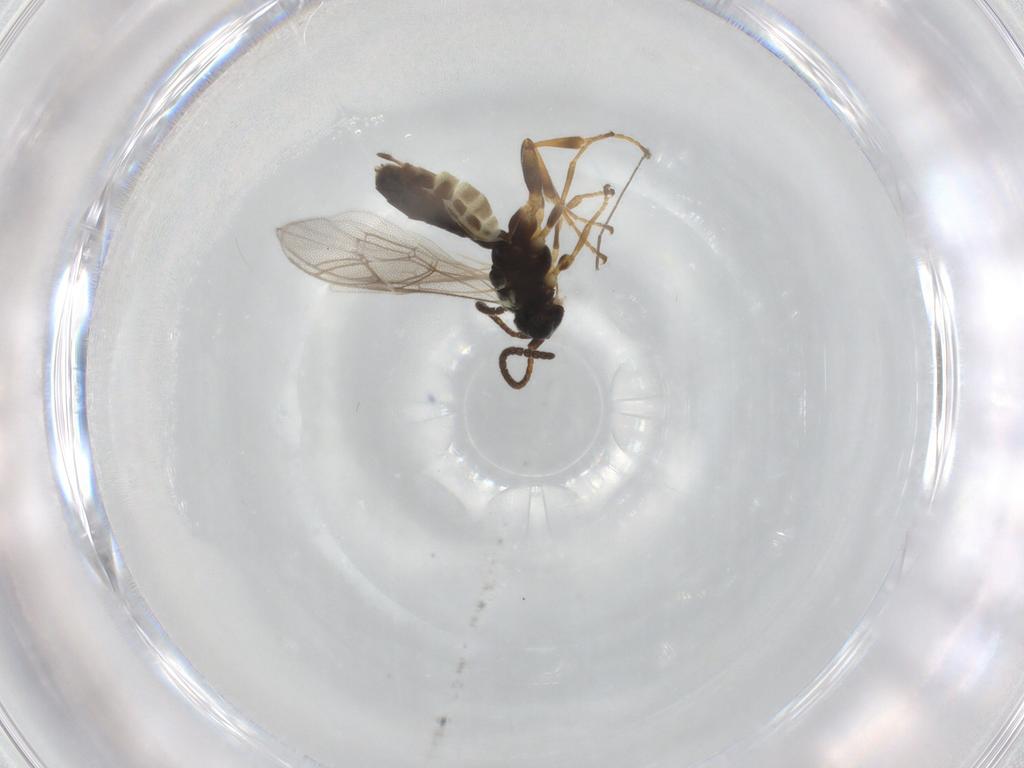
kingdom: Animalia
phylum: Arthropoda
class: Insecta
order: Hymenoptera
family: Ichneumonidae
